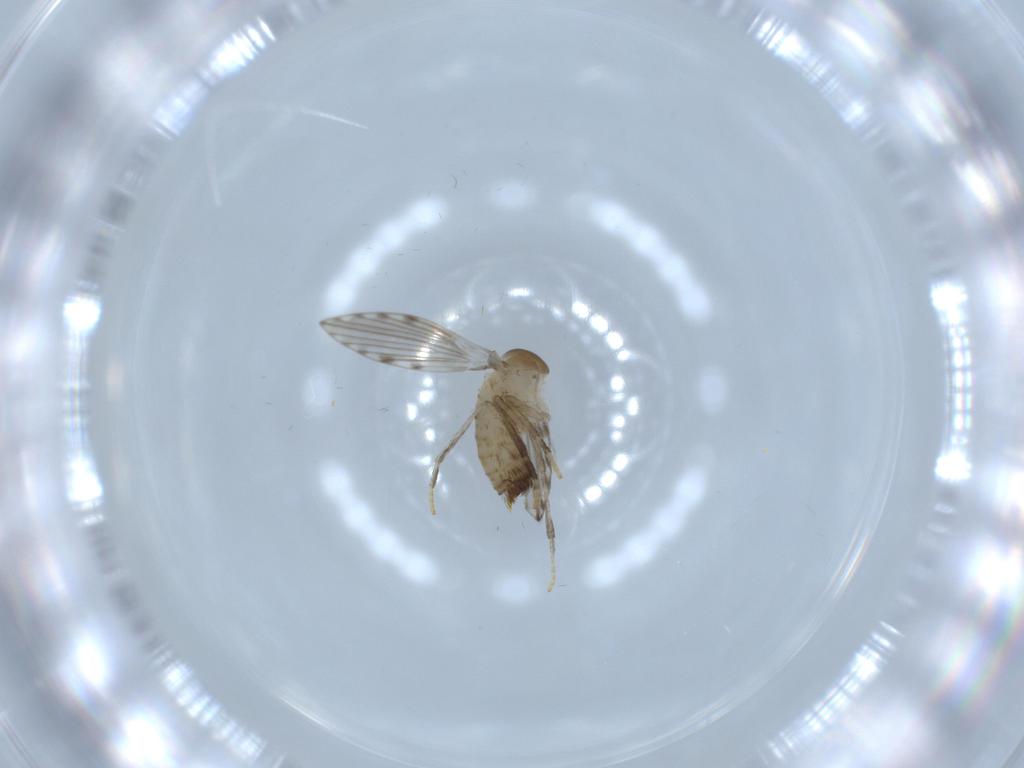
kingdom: Animalia
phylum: Arthropoda
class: Insecta
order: Diptera
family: Psychodidae
